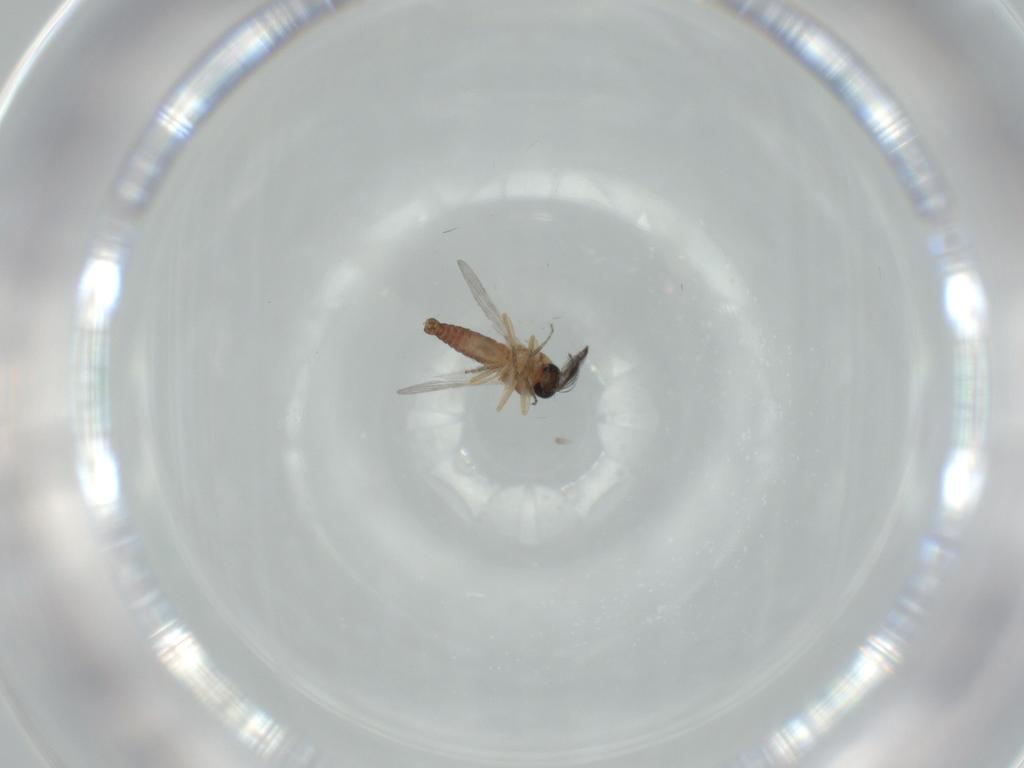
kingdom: Animalia
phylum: Arthropoda
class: Insecta
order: Diptera
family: Ceratopogonidae
